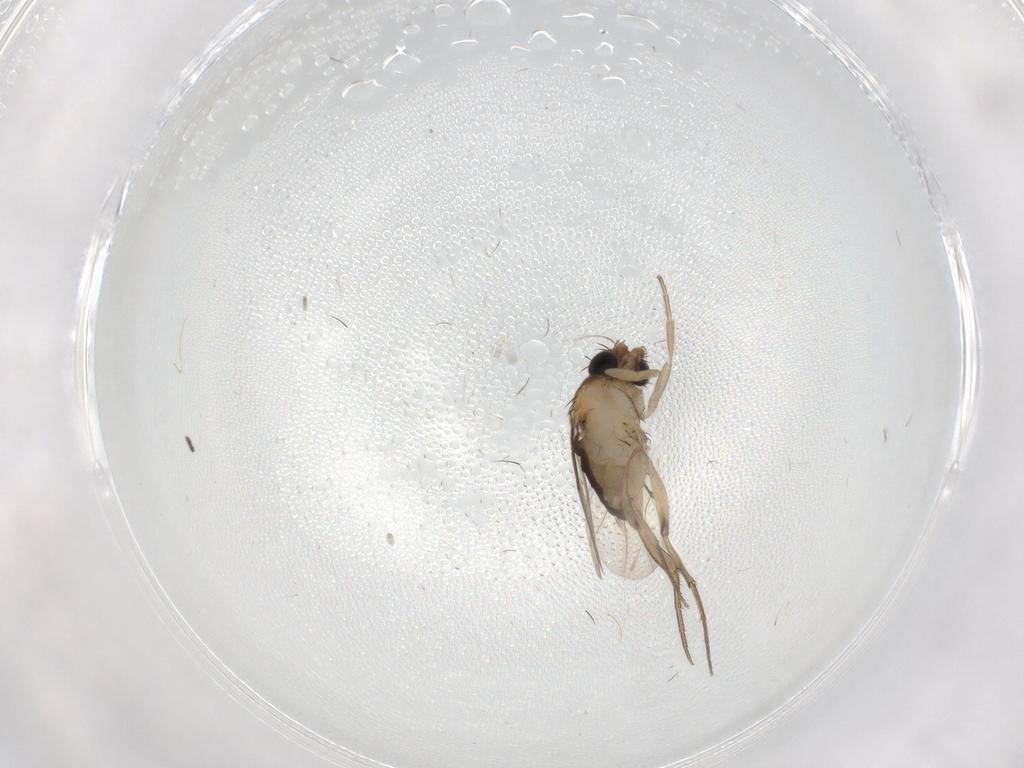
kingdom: Animalia
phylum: Arthropoda
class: Insecta
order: Diptera
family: Phoridae
